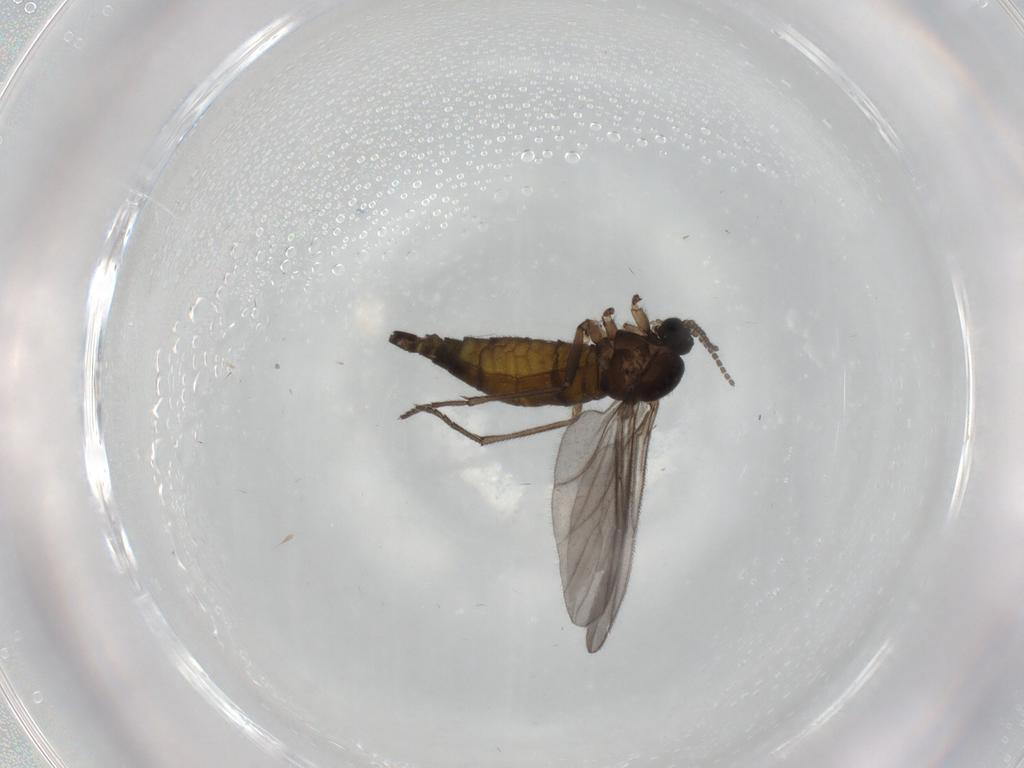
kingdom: Animalia
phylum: Arthropoda
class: Insecta
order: Diptera
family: Sciaridae
